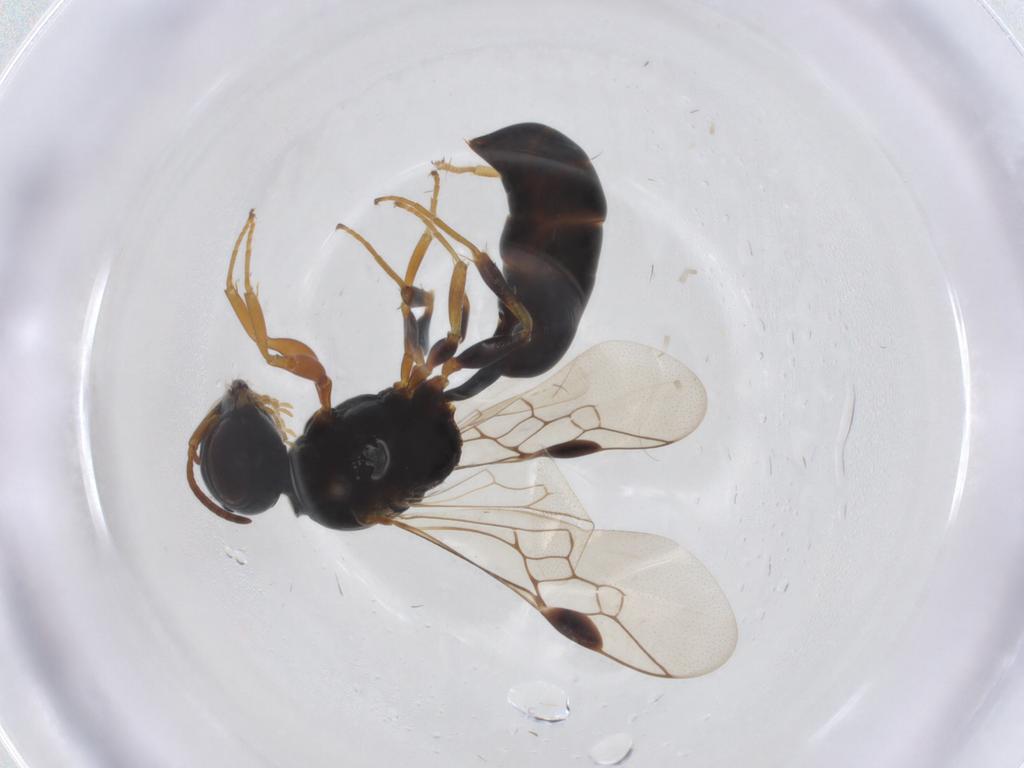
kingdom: Animalia
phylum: Arthropoda
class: Insecta
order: Hymenoptera
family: Pemphredonidae
